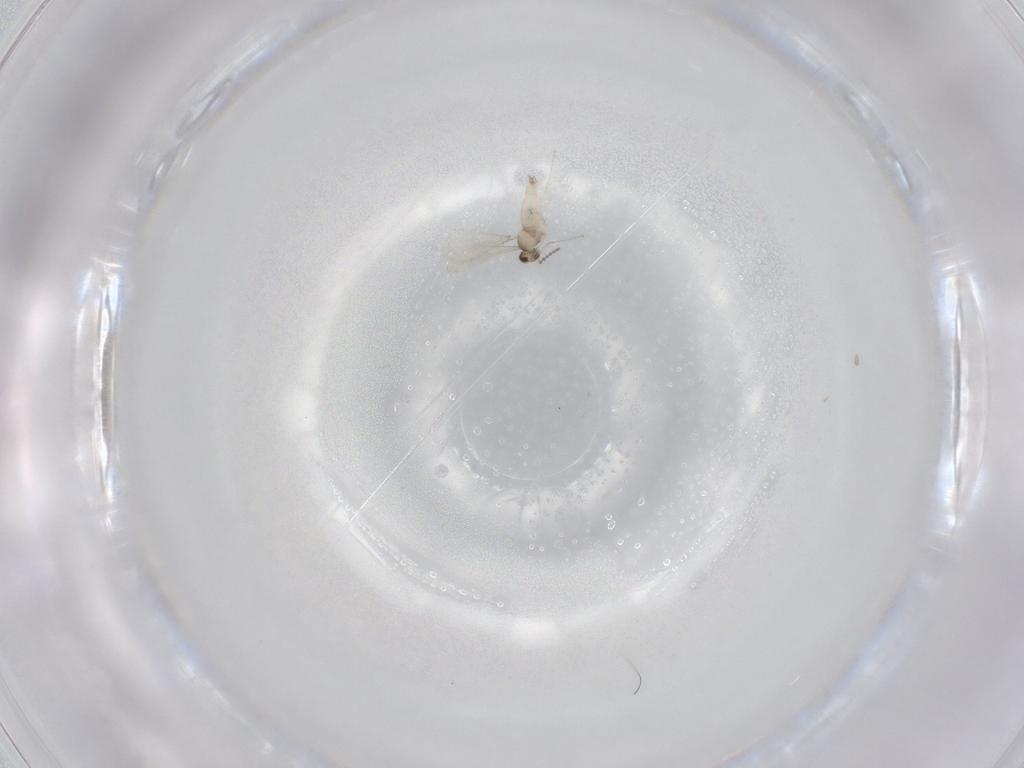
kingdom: Animalia
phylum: Arthropoda
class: Insecta
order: Diptera
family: Cecidomyiidae
